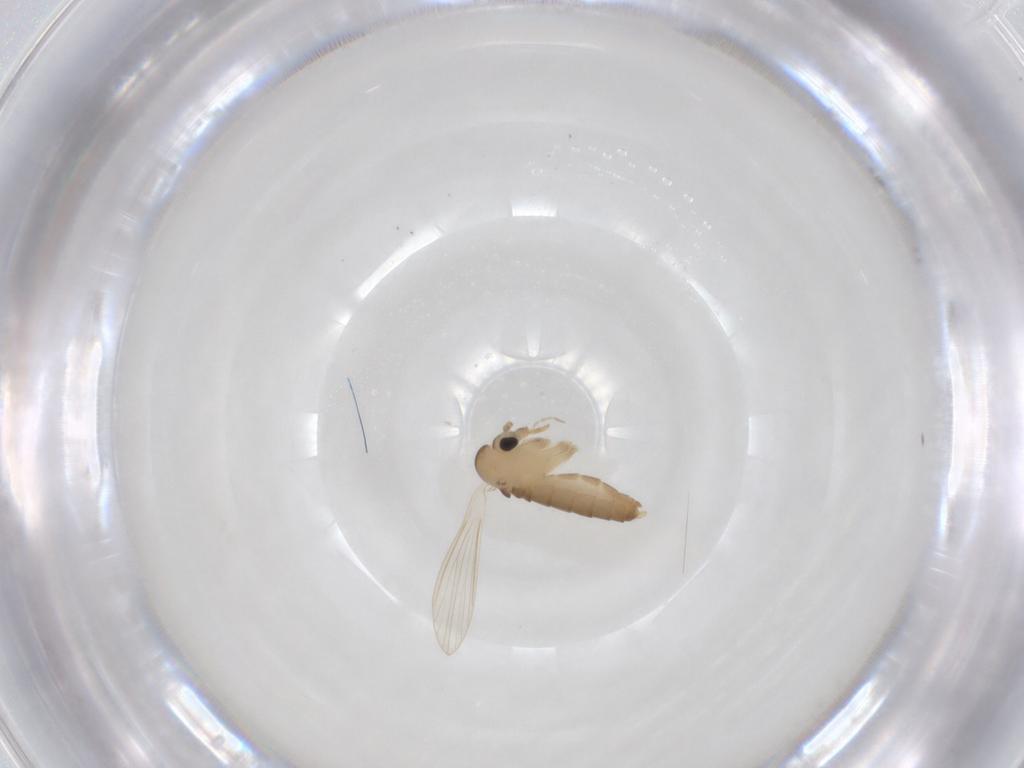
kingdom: Animalia
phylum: Arthropoda
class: Insecta
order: Diptera
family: Psychodidae
